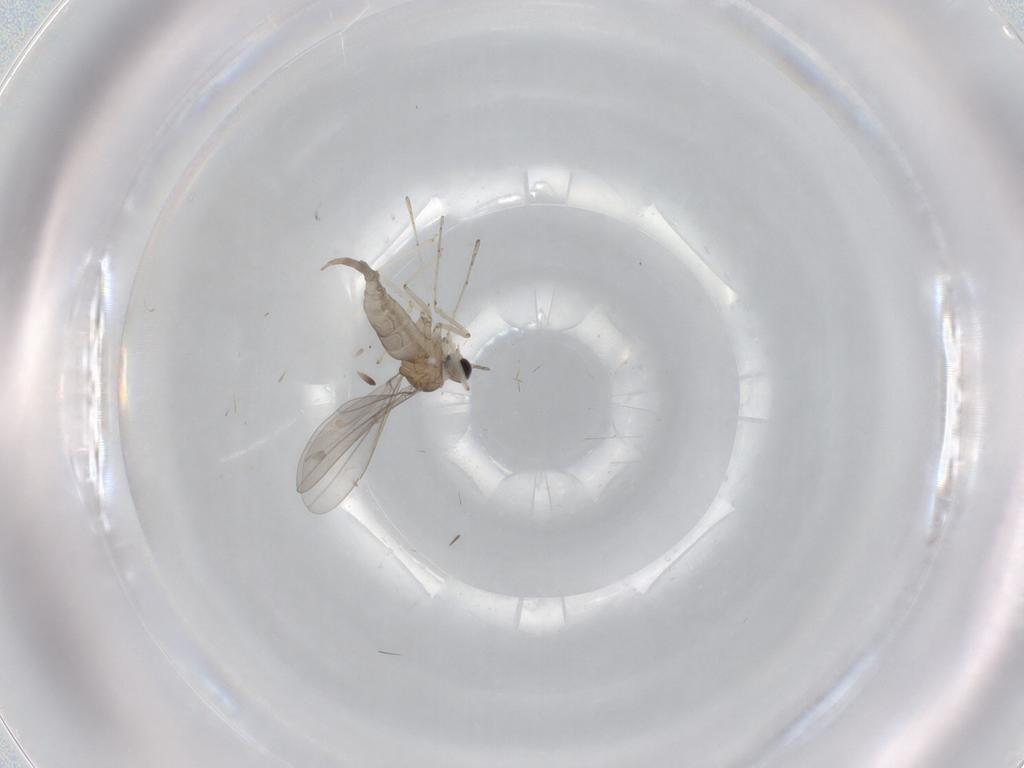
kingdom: Animalia
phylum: Arthropoda
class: Insecta
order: Diptera
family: Cecidomyiidae
